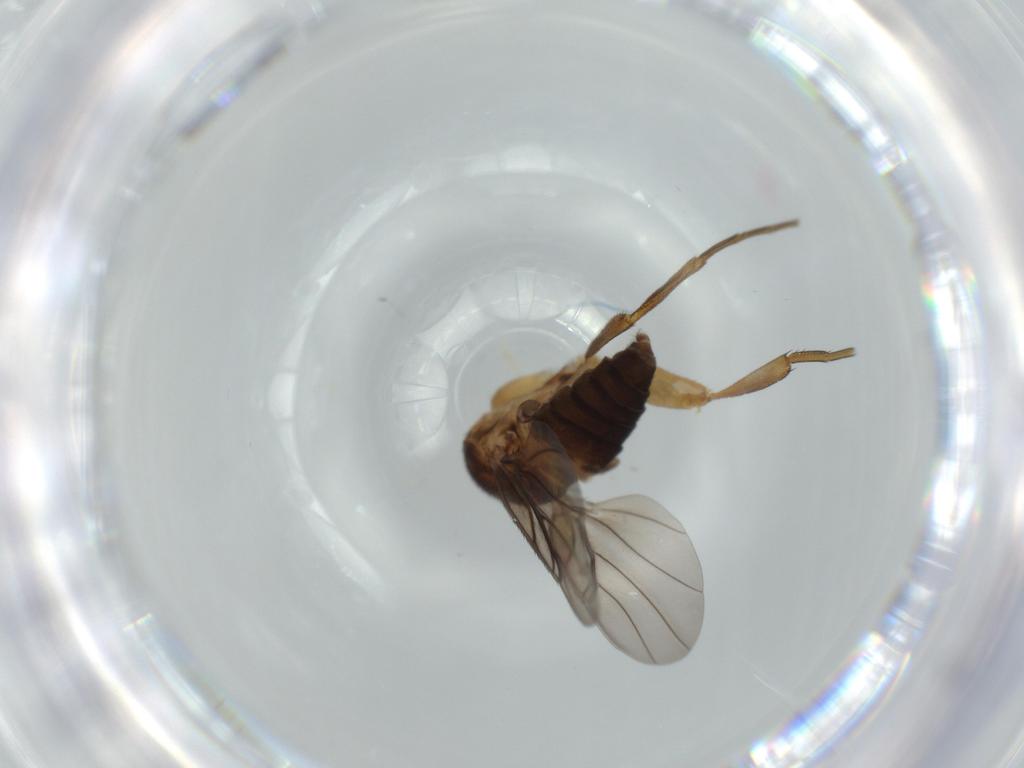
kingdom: Animalia
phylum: Arthropoda
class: Insecta
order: Diptera
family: Phoridae
